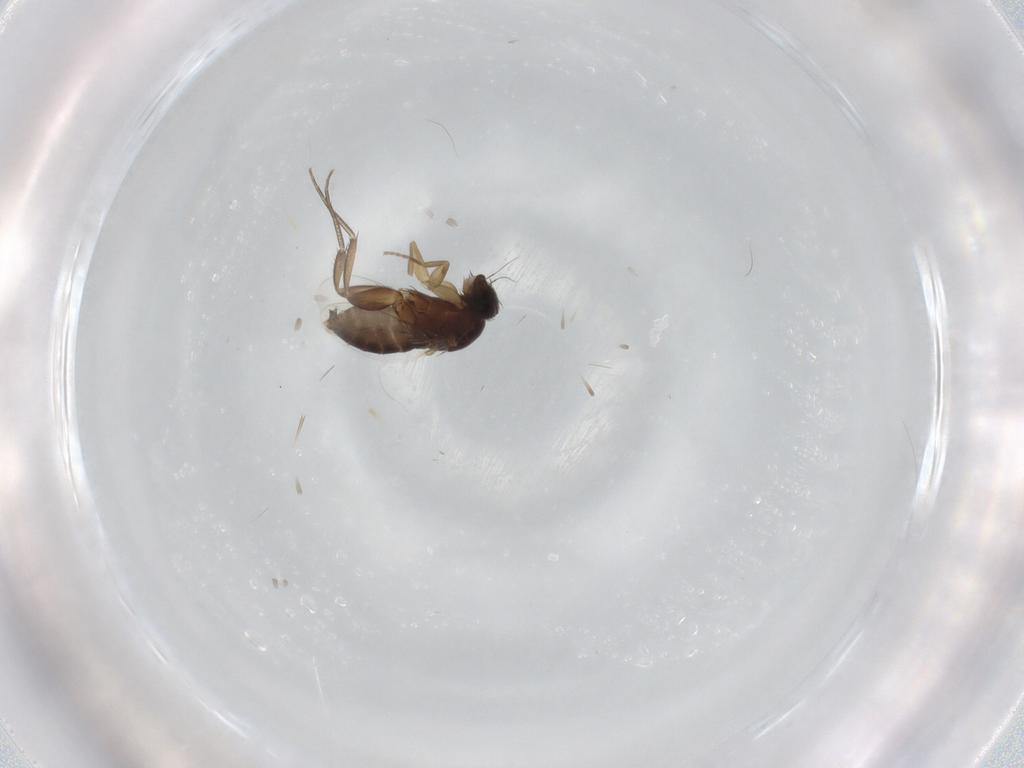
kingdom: Animalia
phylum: Arthropoda
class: Insecta
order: Diptera
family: Phoridae
